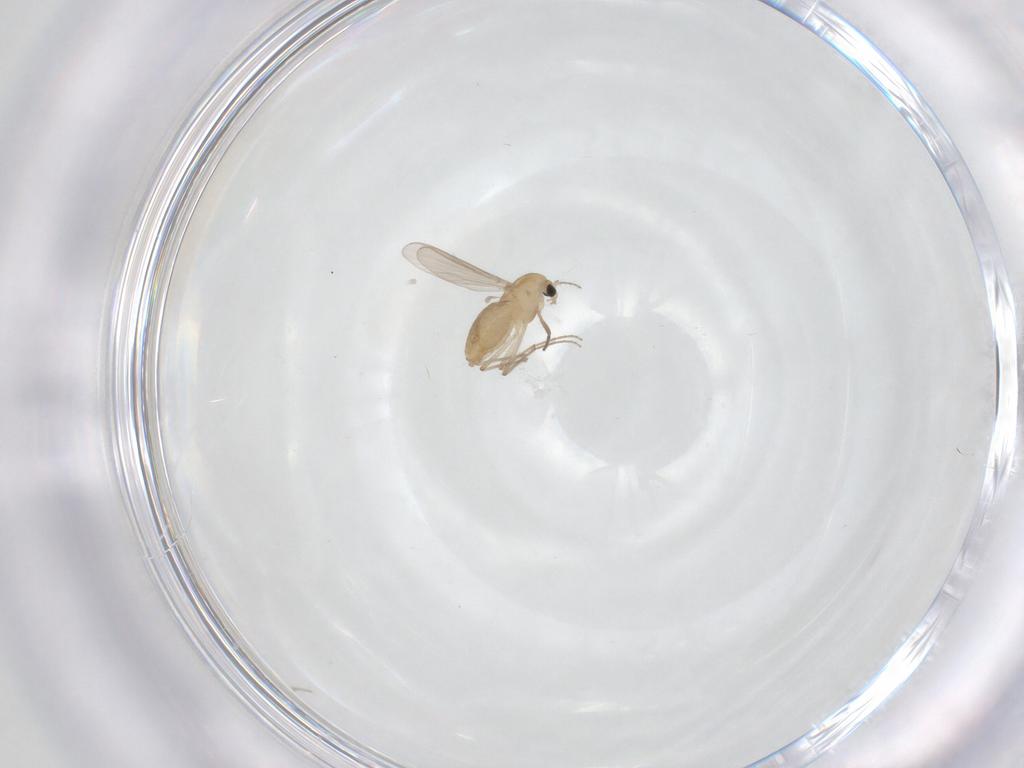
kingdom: Animalia
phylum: Arthropoda
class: Insecta
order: Diptera
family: Chironomidae
